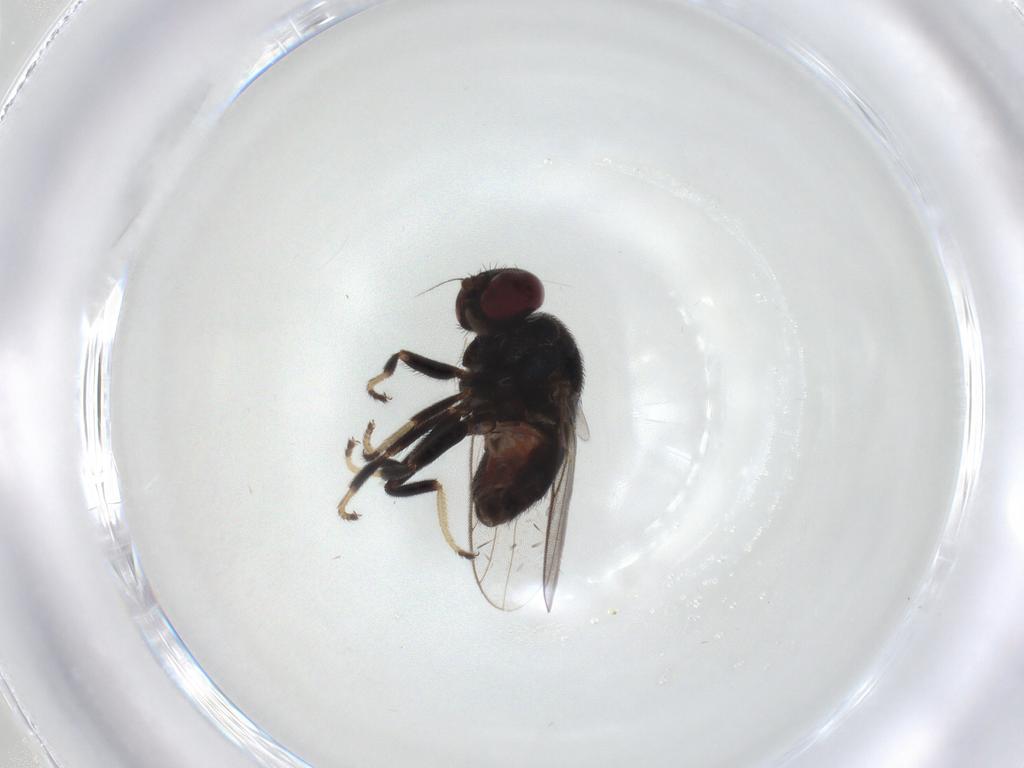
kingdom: Animalia
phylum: Arthropoda
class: Insecta
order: Diptera
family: Chloropidae
